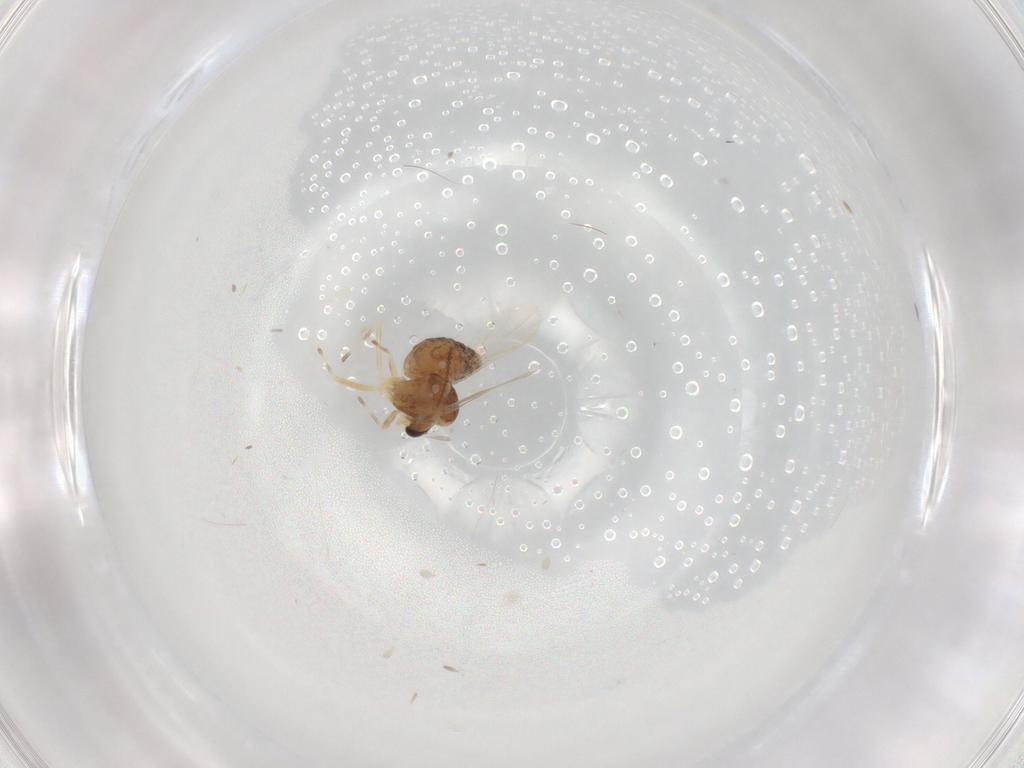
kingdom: Animalia
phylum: Arthropoda
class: Insecta
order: Diptera
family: Chironomidae
